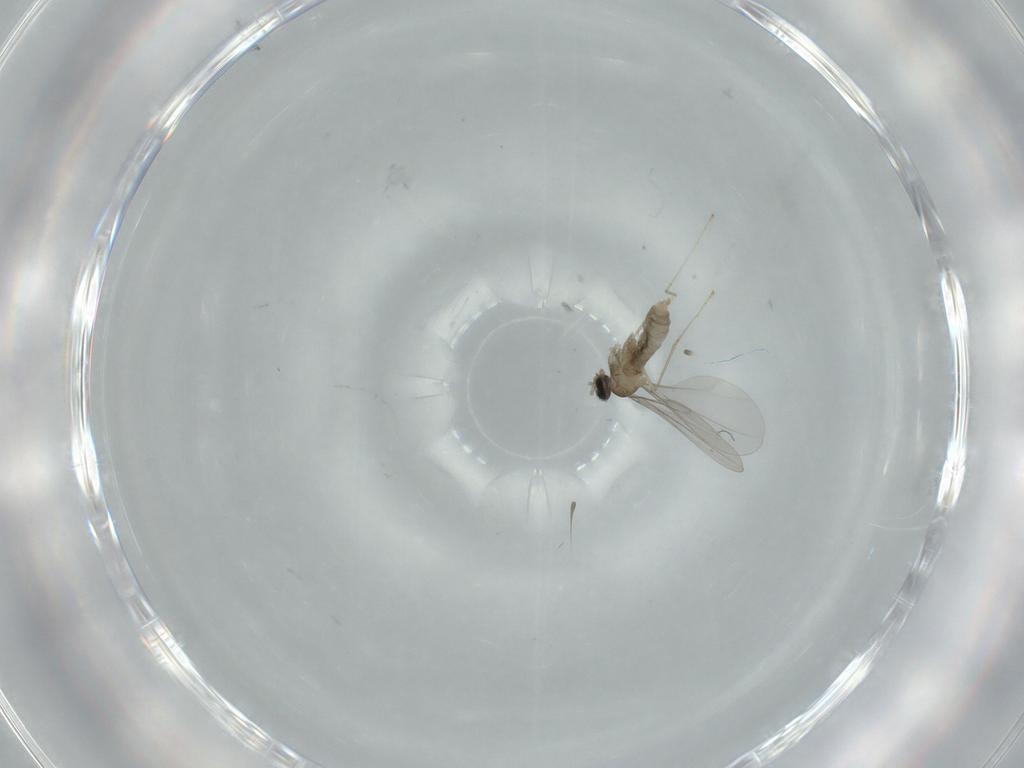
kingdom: Animalia
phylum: Arthropoda
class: Insecta
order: Diptera
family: Cecidomyiidae
